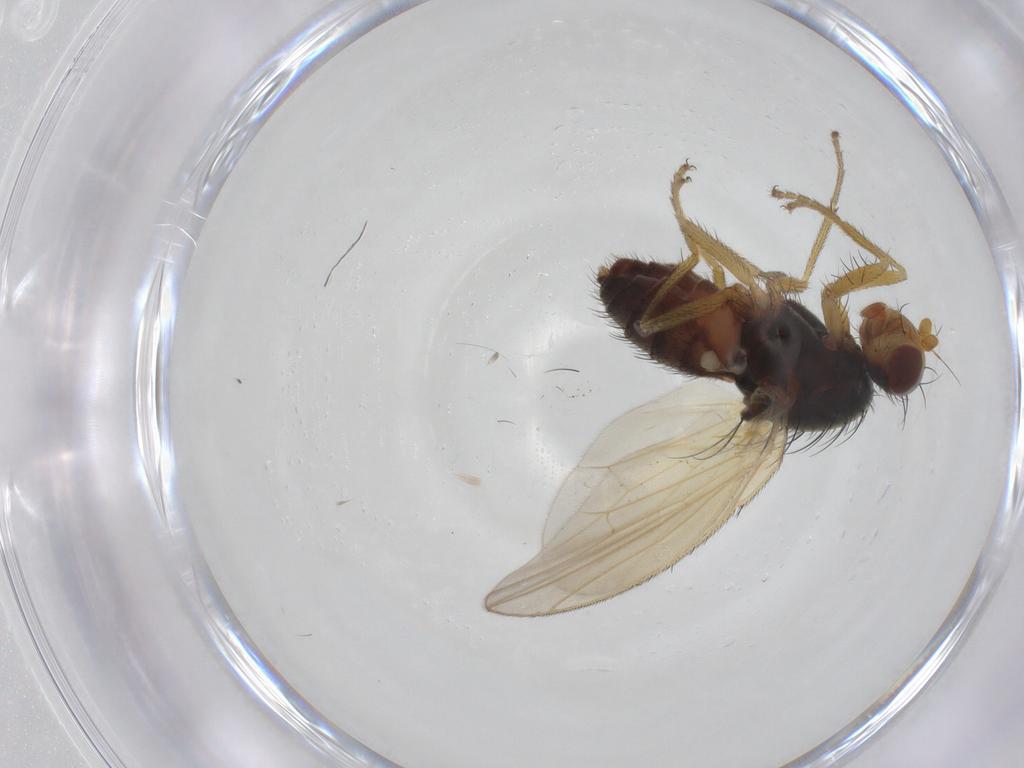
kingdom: Animalia
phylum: Arthropoda
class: Insecta
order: Diptera
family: Heleomyzidae
